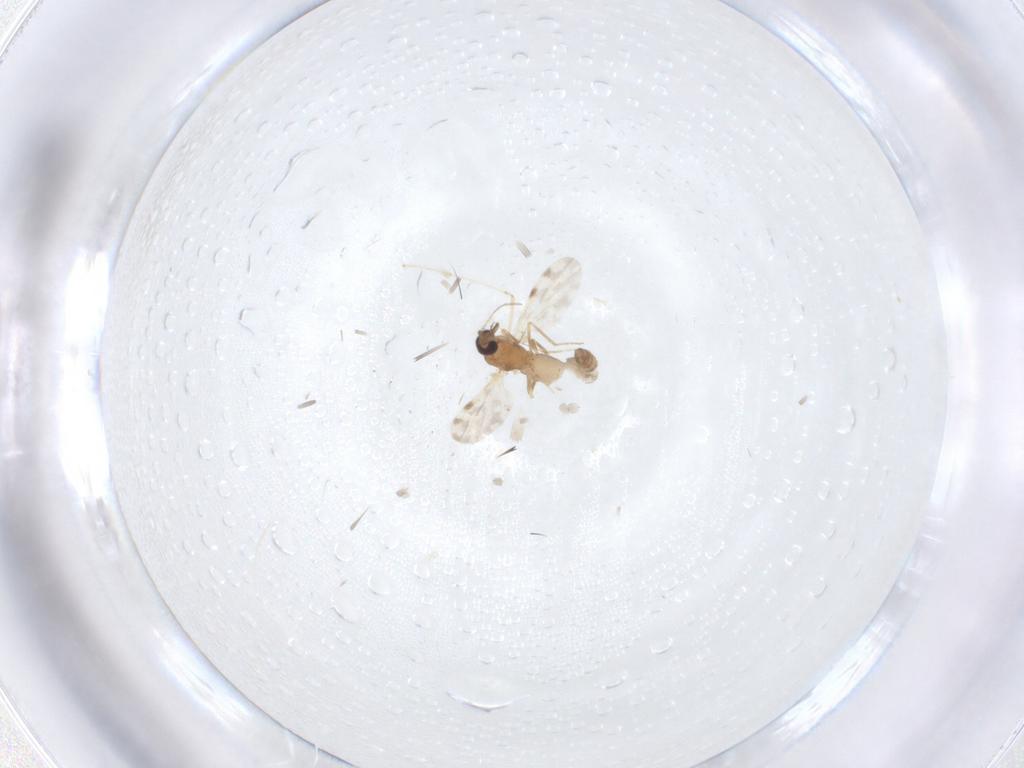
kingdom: Animalia
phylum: Arthropoda
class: Insecta
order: Diptera
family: Cecidomyiidae
